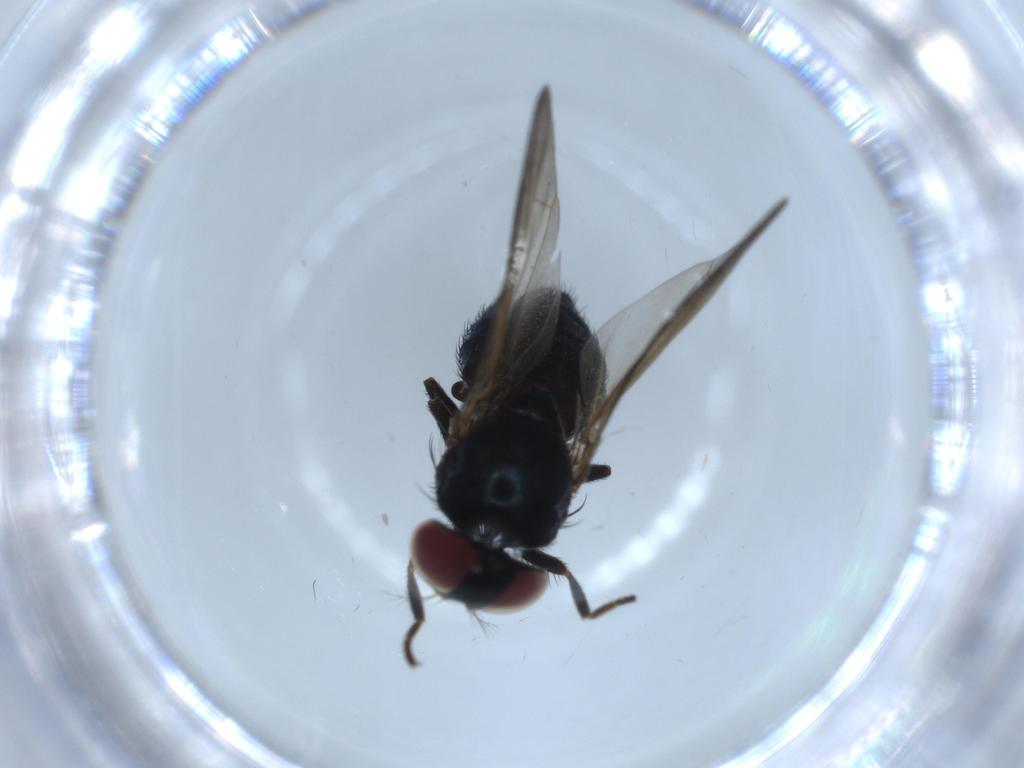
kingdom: Animalia
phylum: Arthropoda
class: Insecta
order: Diptera
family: Lonchaeidae
